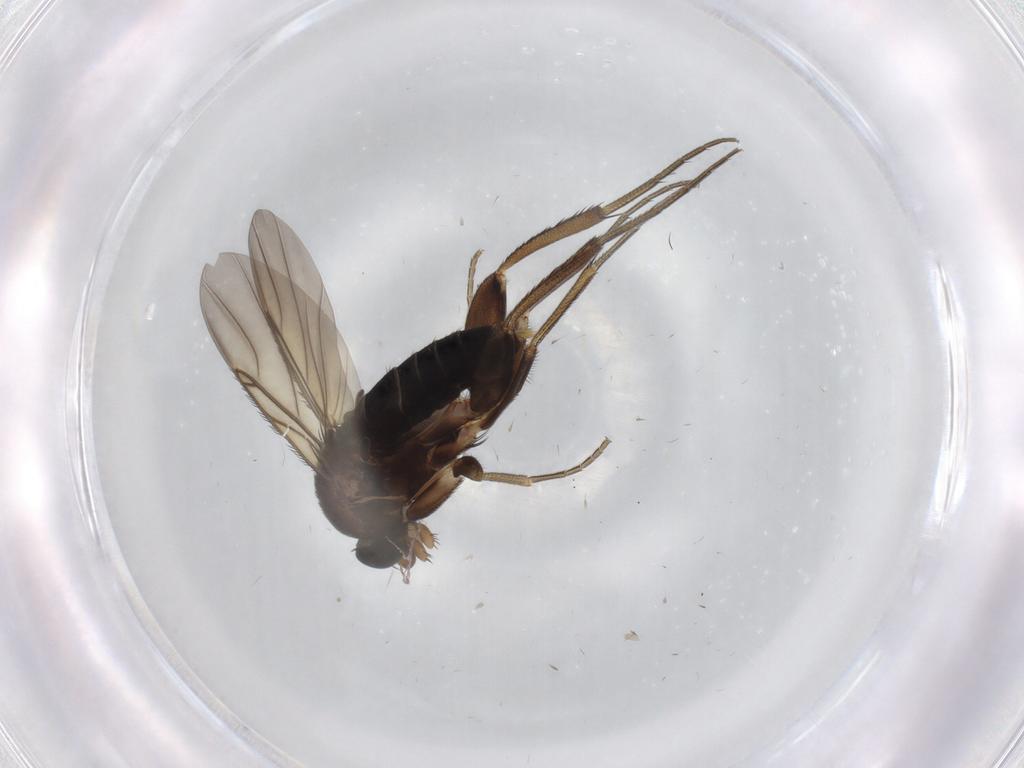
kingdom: Animalia
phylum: Arthropoda
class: Insecta
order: Diptera
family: Phoridae
